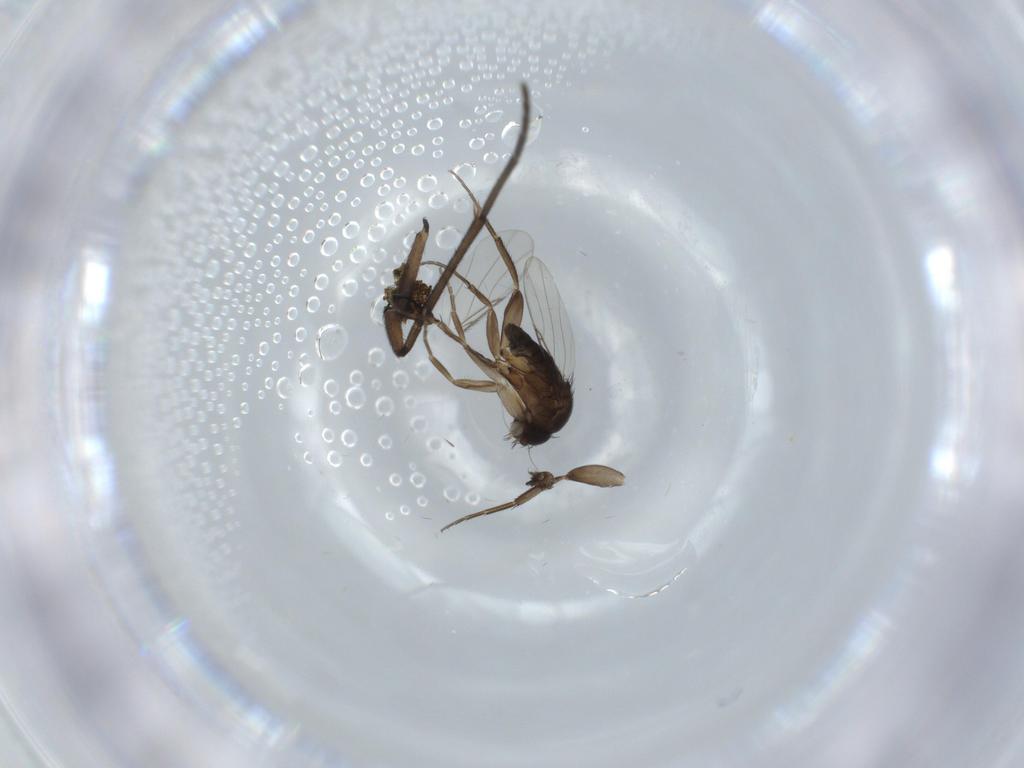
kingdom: Animalia
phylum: Arthropoda
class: Insecta
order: Diptera
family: Phoridae
